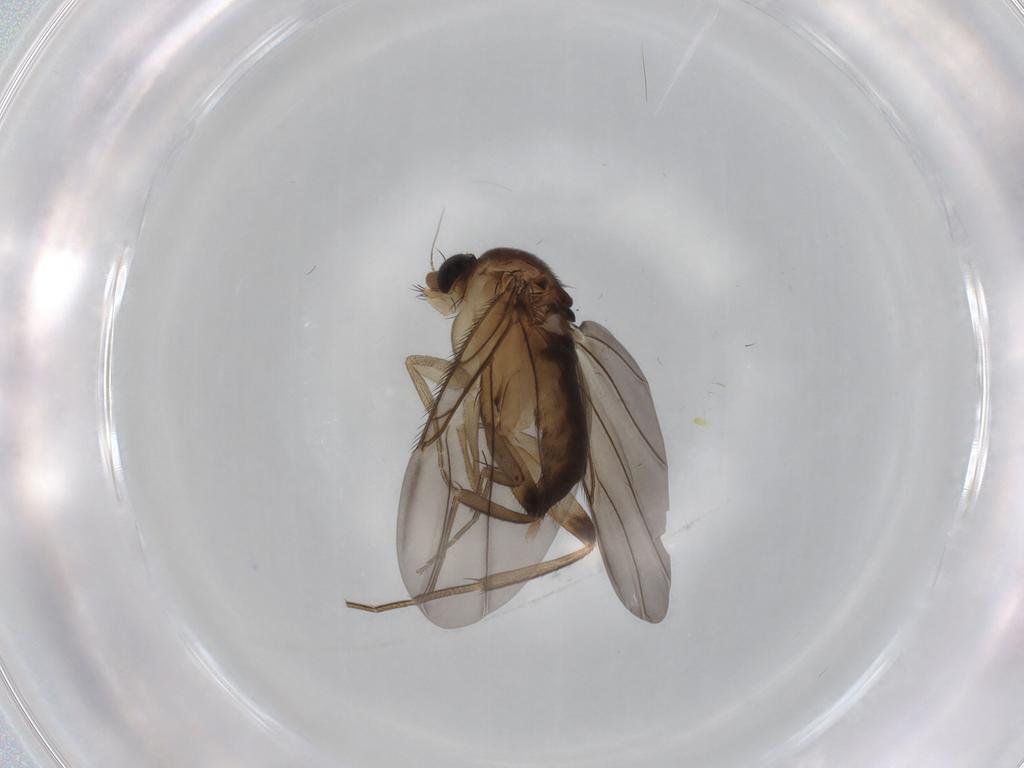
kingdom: Animalia
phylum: Arthropoda
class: Insecta
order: Diptera
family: Phoridae
